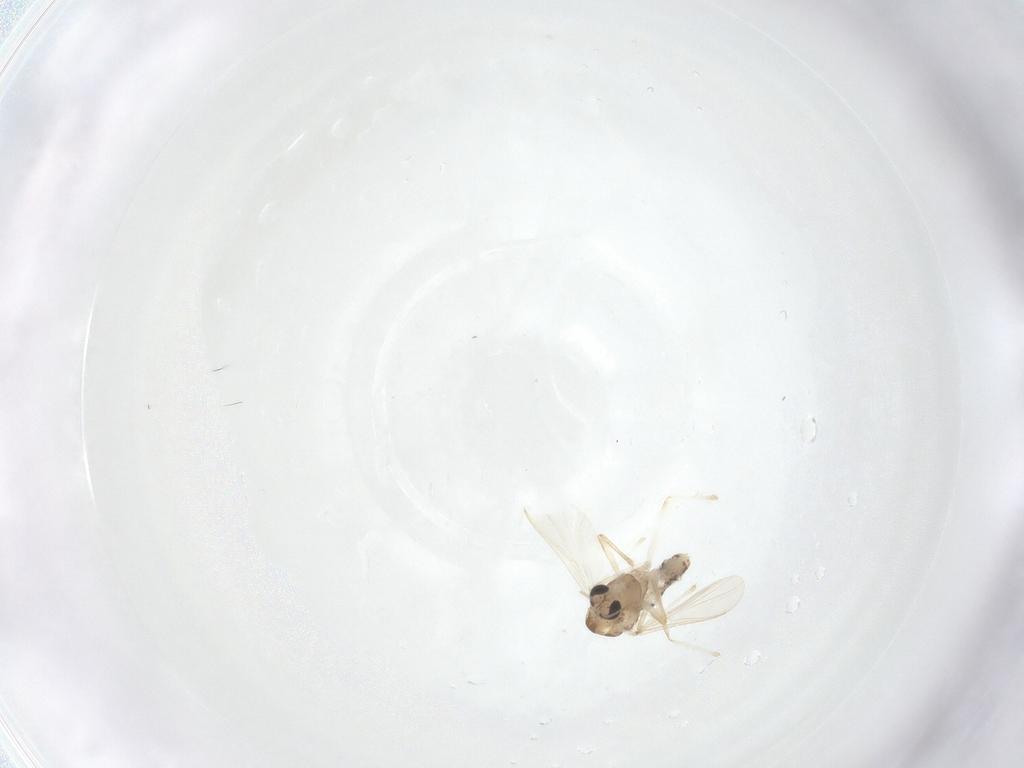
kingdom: Animalia
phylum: Arthropoda
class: Insecta
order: Diptera
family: Chironomidae
